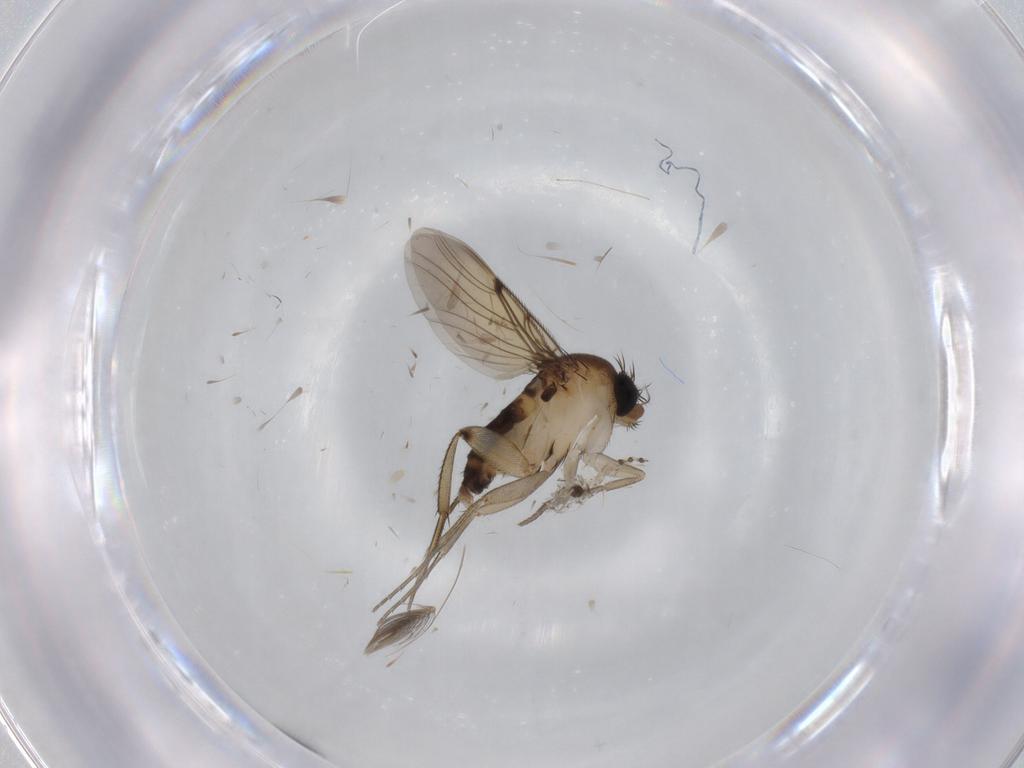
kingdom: Animalia
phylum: Arthropoda
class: Insecta
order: Diptera
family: Phoridae
